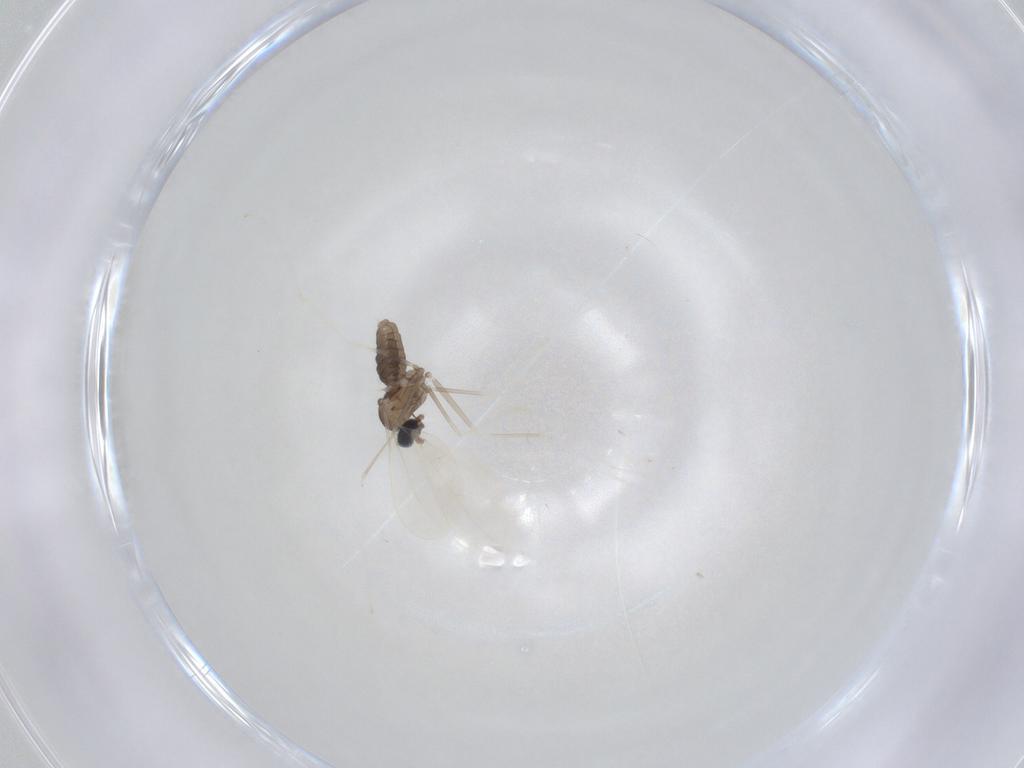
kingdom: Animalia
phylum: Arthropoda
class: Insecta
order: Diptera
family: Cecidomyiidae
